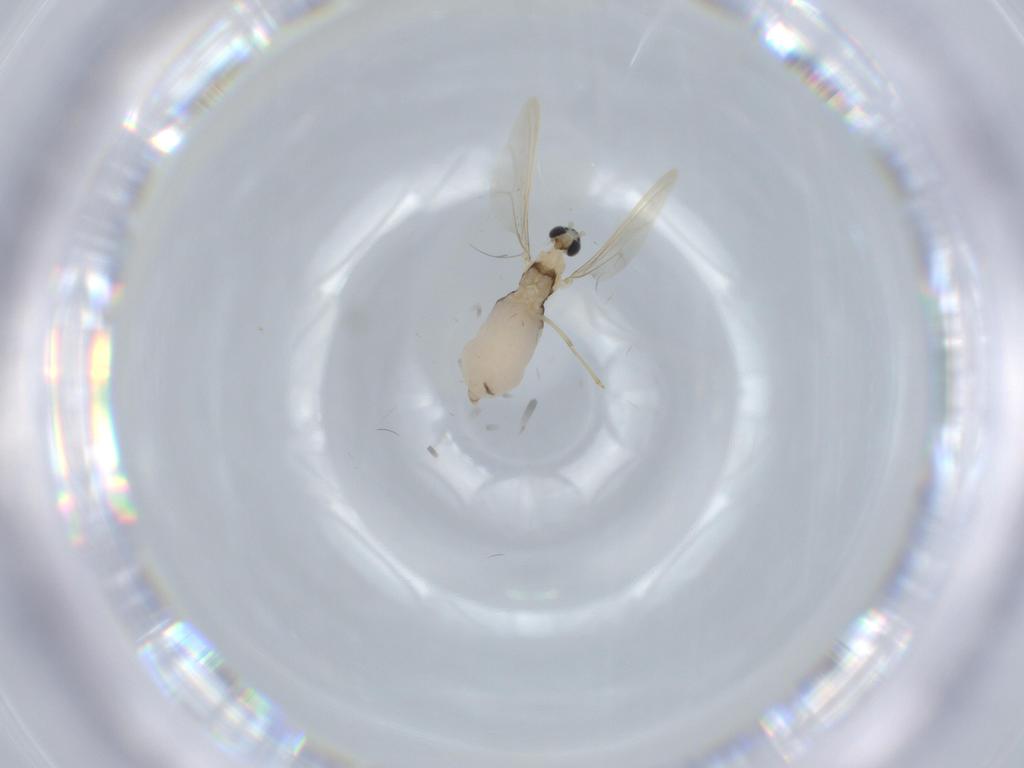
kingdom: Animalia
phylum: Arthropoda
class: Insecta
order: Diptera
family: Cecidomyiidae
